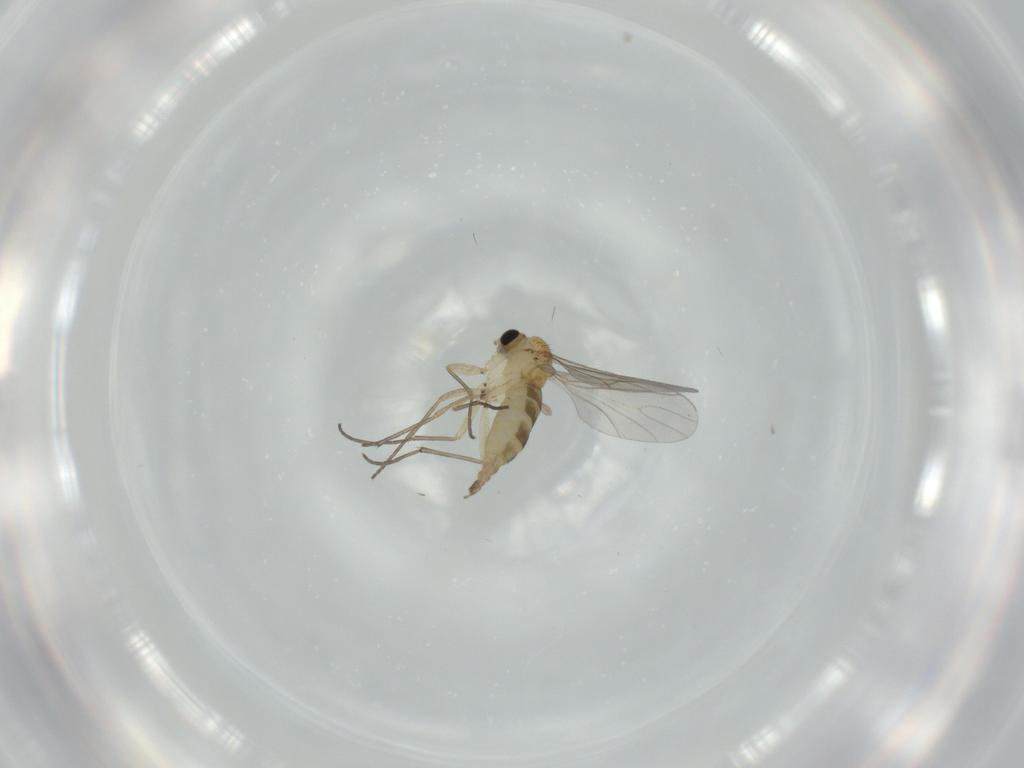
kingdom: Animalia
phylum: Arthropoda
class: Insecta
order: Diptera
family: Sciaridae
